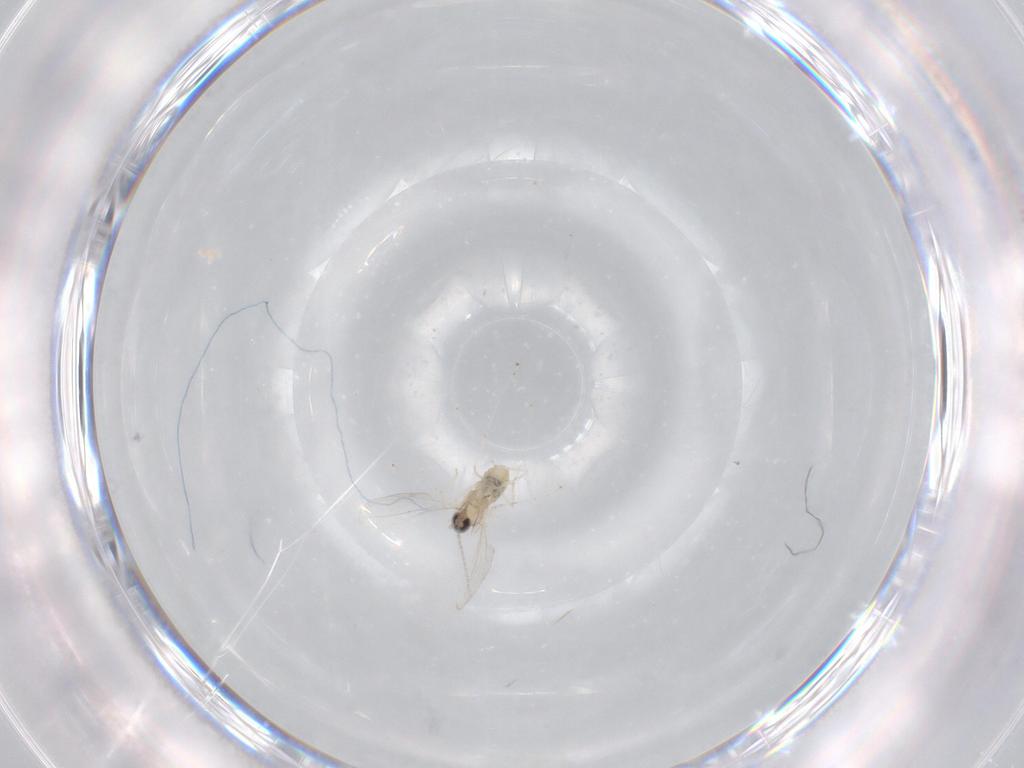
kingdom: Animalia
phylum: Arthropoda
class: Insecta
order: Diptera
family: Cecidomyiidae
